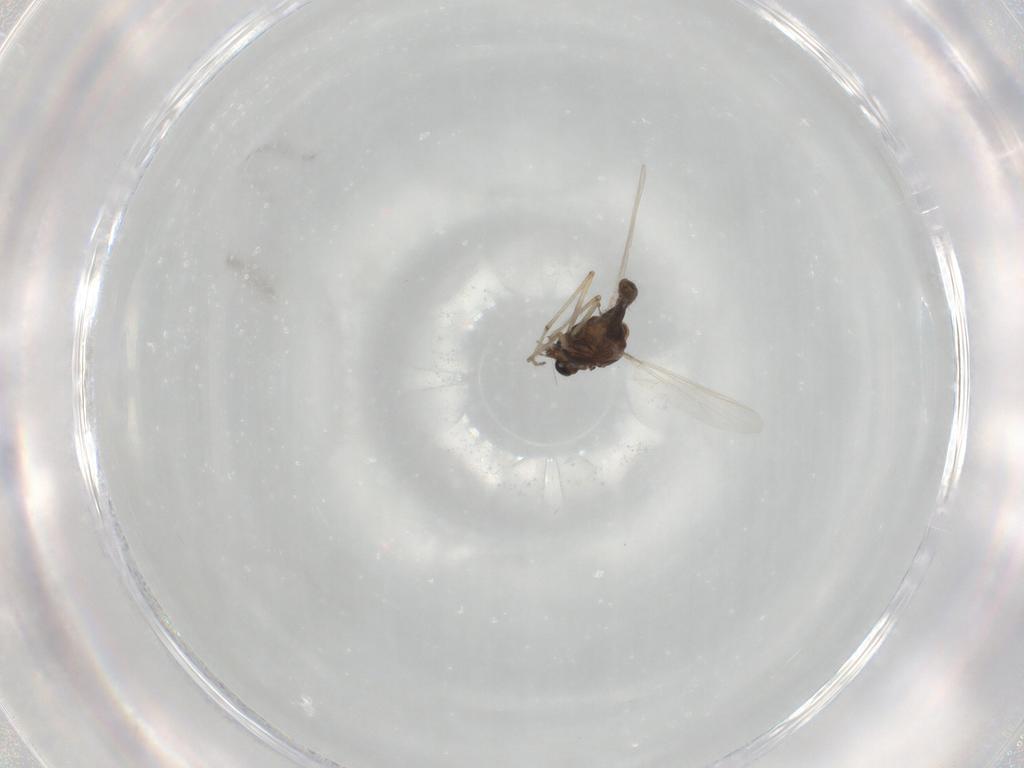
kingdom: Animalia
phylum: Arthropoda
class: Insecta
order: Diptera
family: Chironomidae
